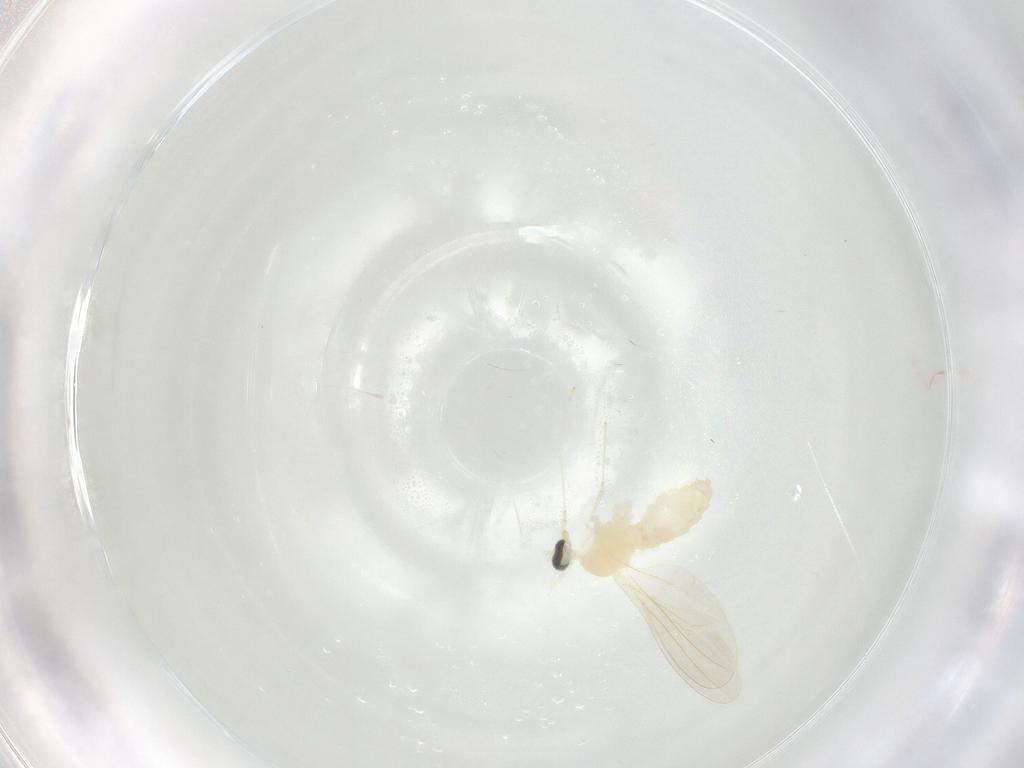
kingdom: Animalia
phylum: Arthropoda
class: Insecta
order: Diptera
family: Cecidomyiidae
